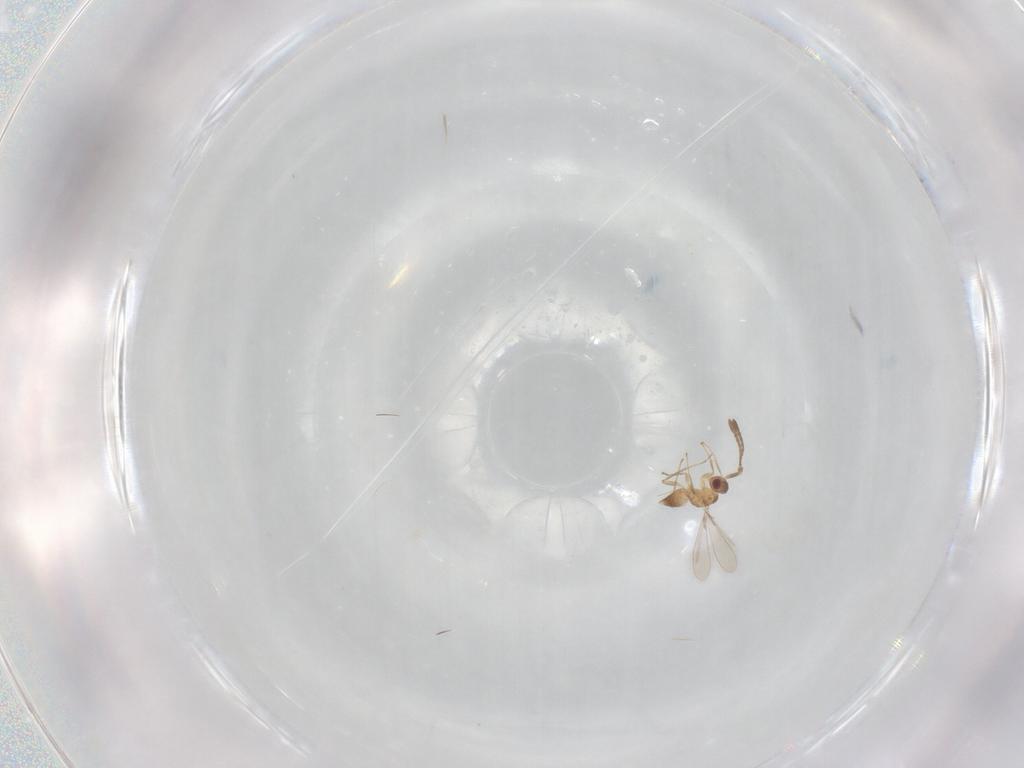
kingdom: Animalia
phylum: Arthropoda
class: Insecta
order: Hymenoptera
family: Mymaridae
